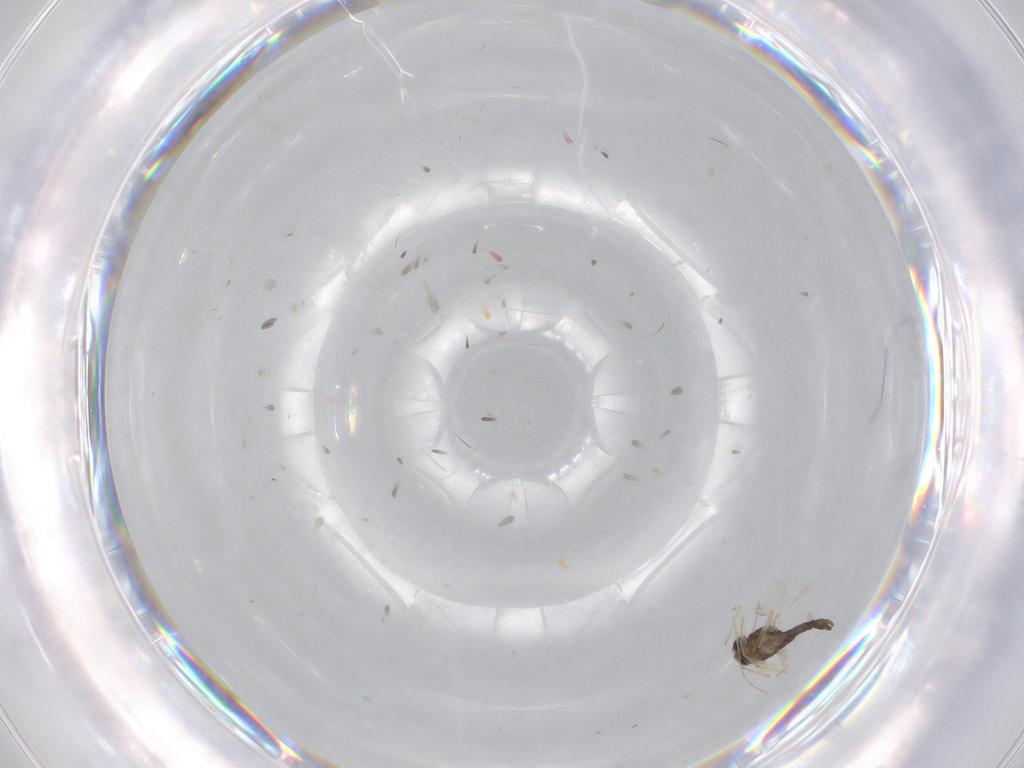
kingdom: Animalia
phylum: Arthropoda
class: Insecta
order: Diptera
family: Chironomidae
